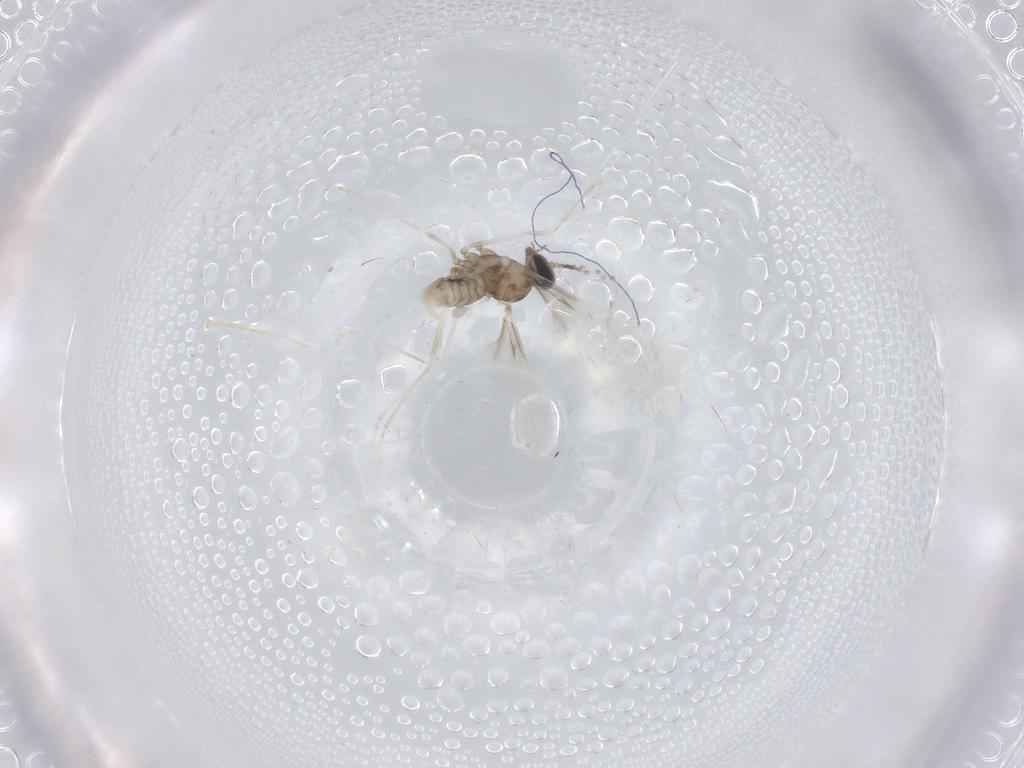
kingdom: Animalia
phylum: Arthropoda
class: Insecta
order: Diptera
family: Cecidomyiidae
